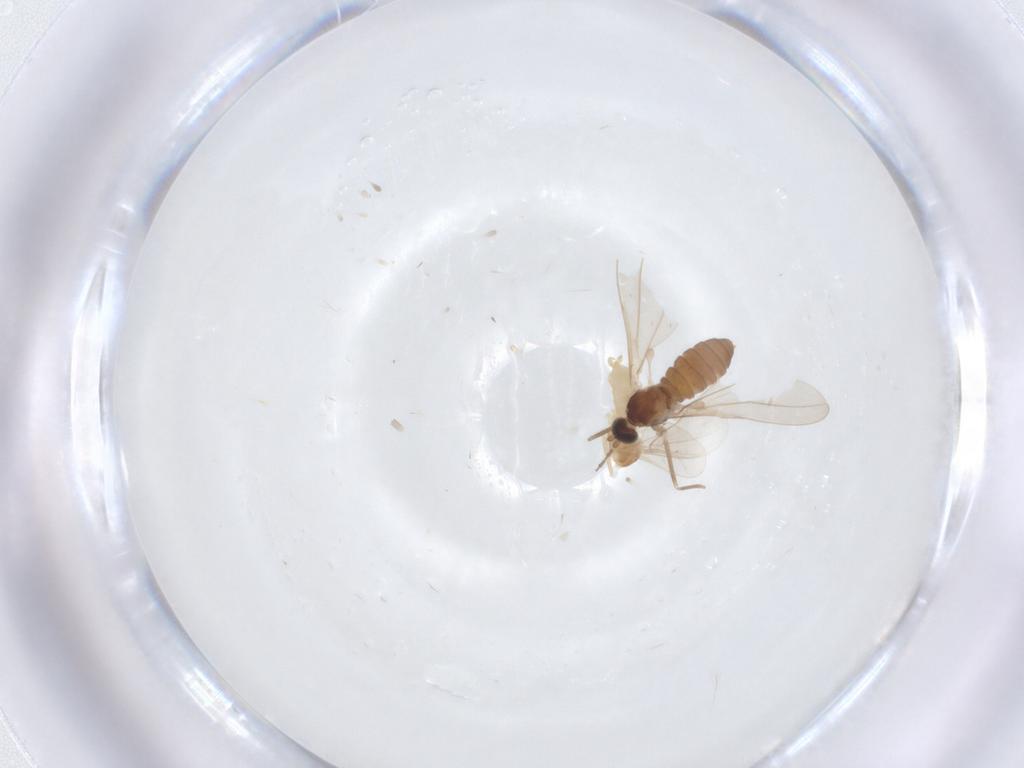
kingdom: Animalia
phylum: Arthropoda
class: Insecta
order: Diptera
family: Cecidomyiidae
